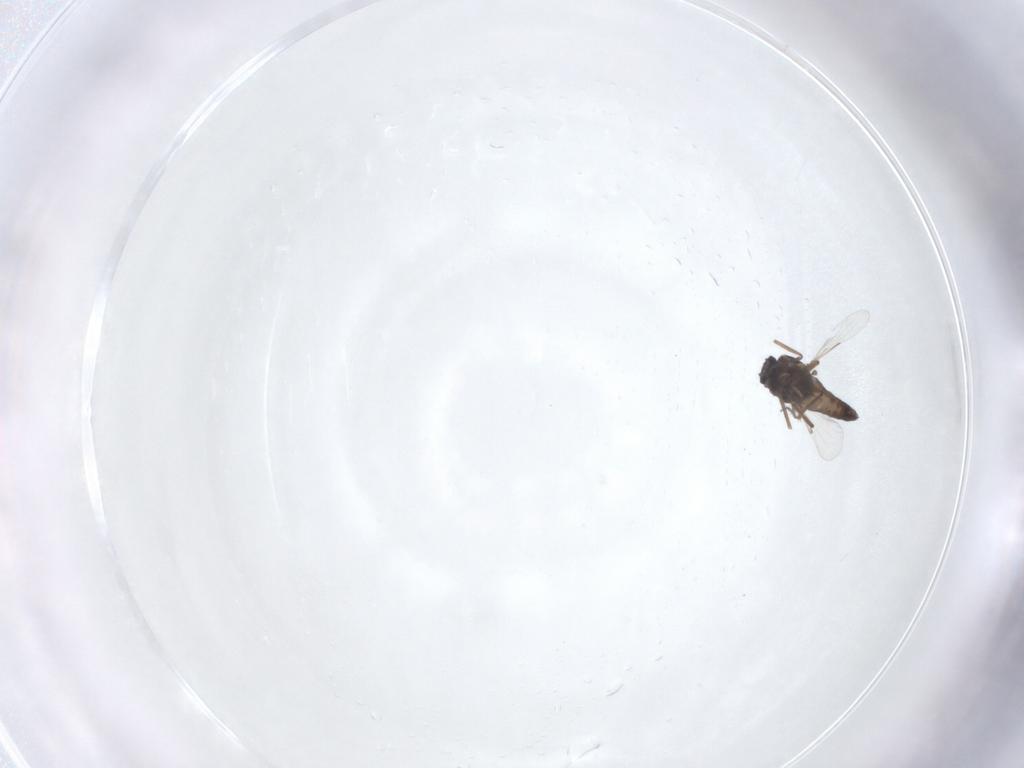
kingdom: Animalia
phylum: Arthropoda
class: Insecta
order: Diptera
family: Ceratopogonidae
